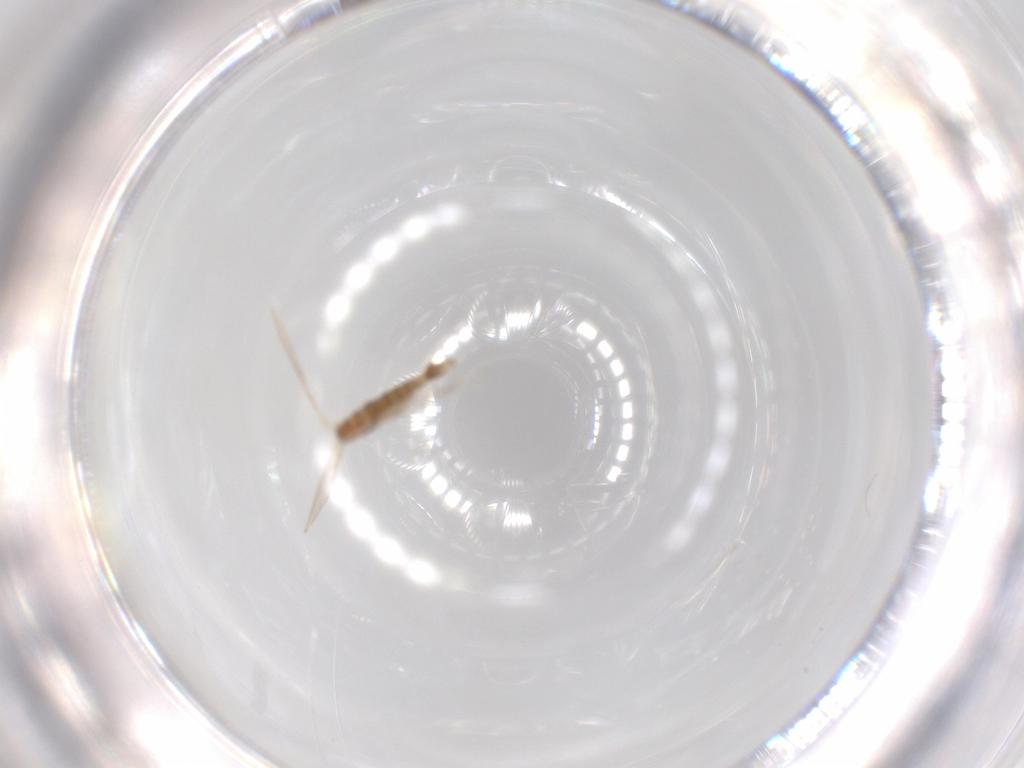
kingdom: Animalia
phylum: Arthropoda
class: Insecta
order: Diptera
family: Psychodidae
